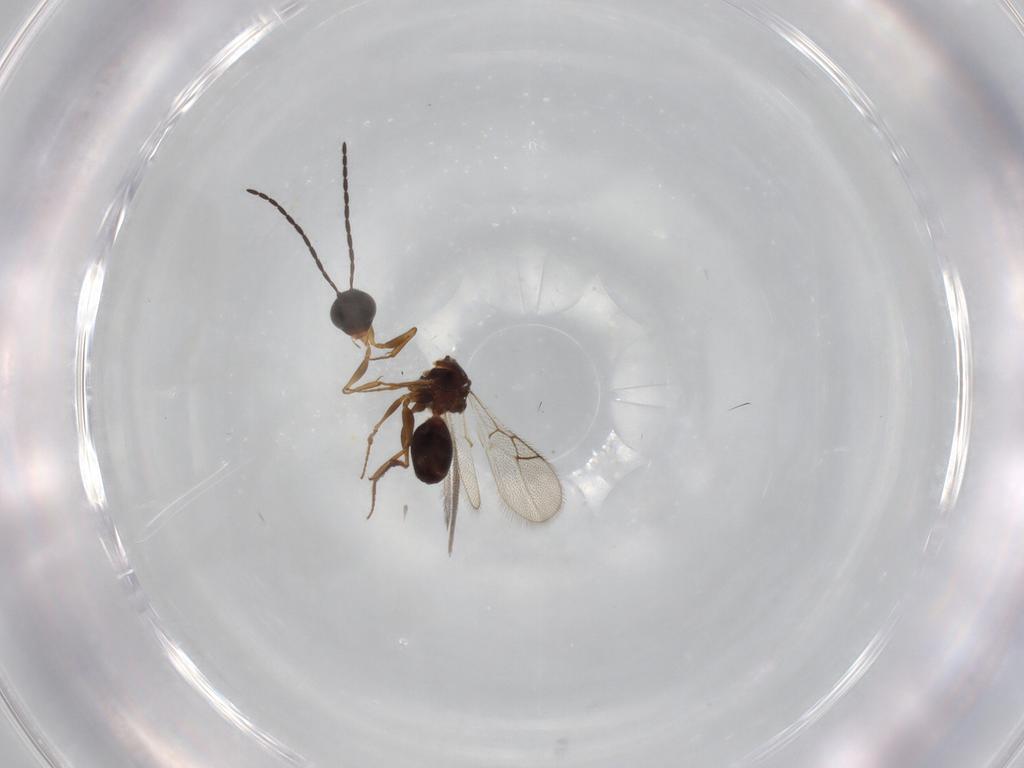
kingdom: Animalia
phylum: Arthropoda
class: Insecta
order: Hymenoptera
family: Figitidae
